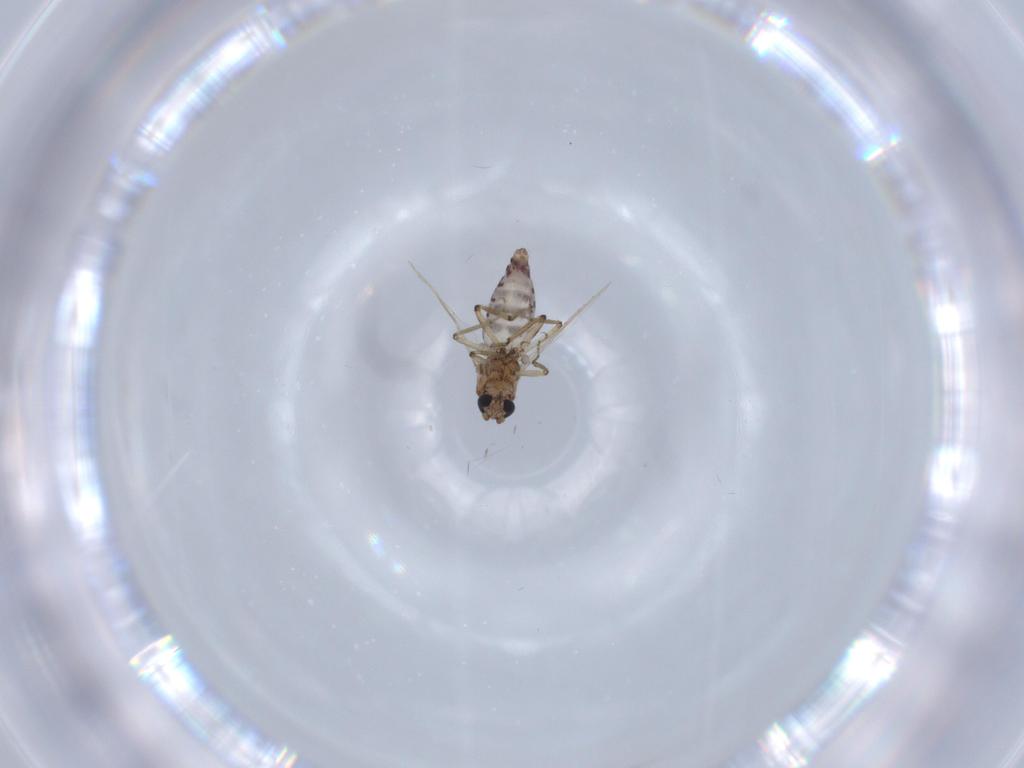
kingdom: Animalia
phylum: Arthropoda
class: Insecta
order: Diptera
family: Ceratopogonidae
